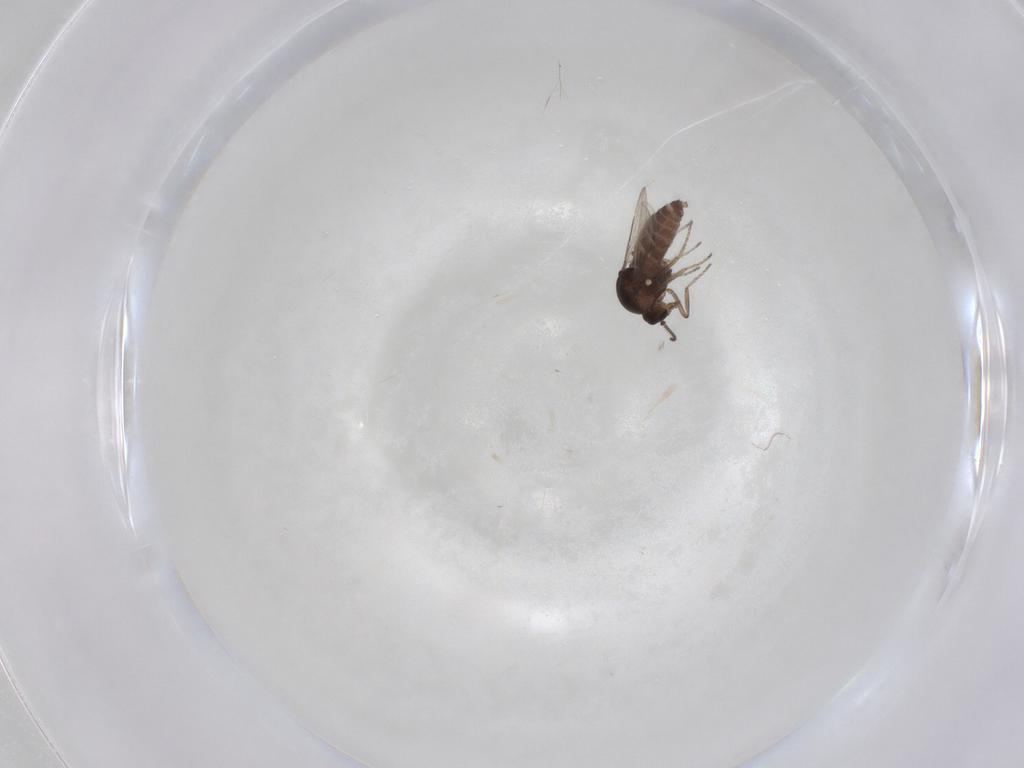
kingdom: Animalia
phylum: Arthropoda
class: Insecta
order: Diptera
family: Ceratopogonidae
